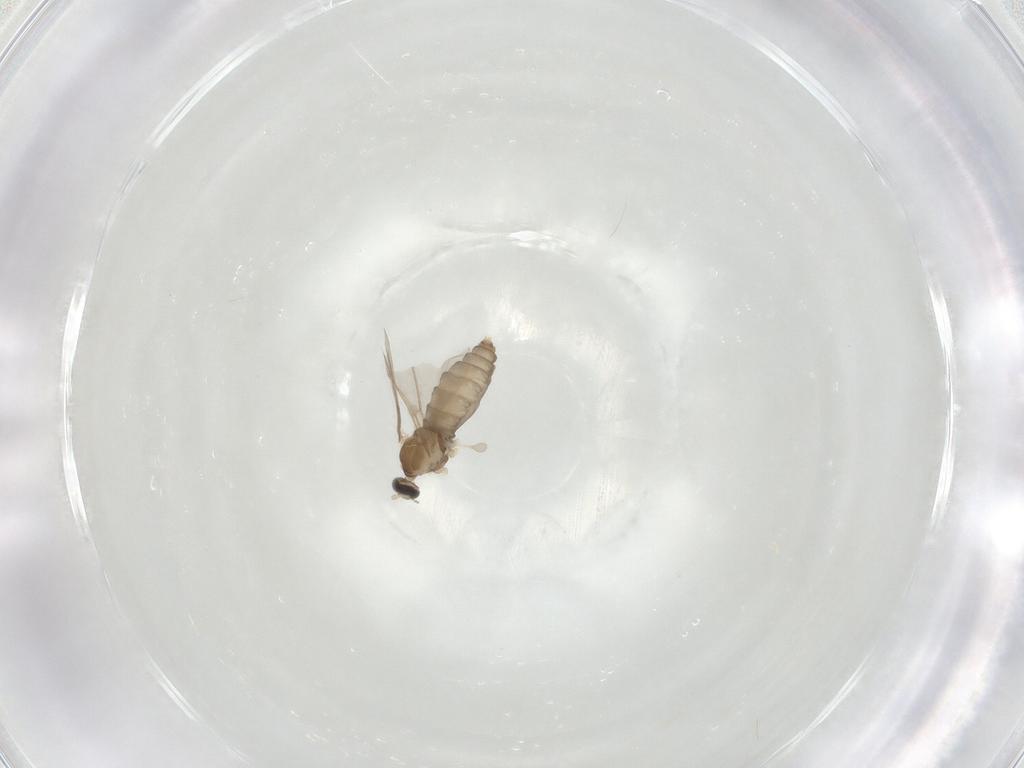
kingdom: Animalia
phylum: Arthropoda
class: Insecta
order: Diptera
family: Cecidomyiidae
